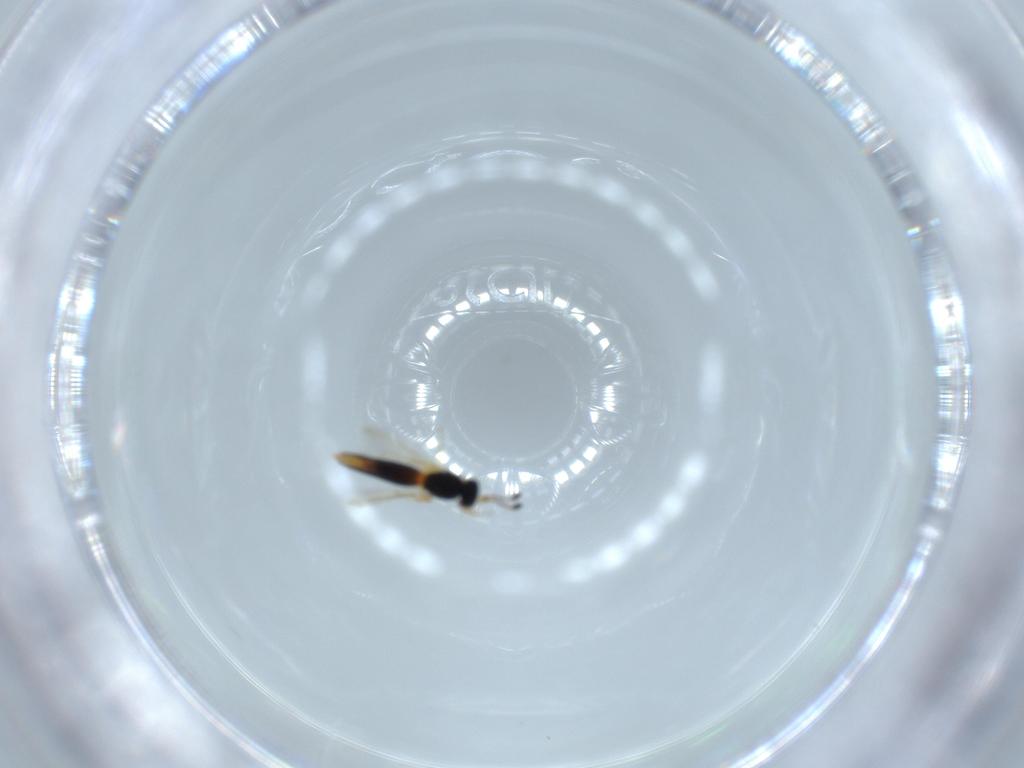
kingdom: Animalia
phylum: Arthropoda
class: Insecta
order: Hymenoptera
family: Scelionidae
